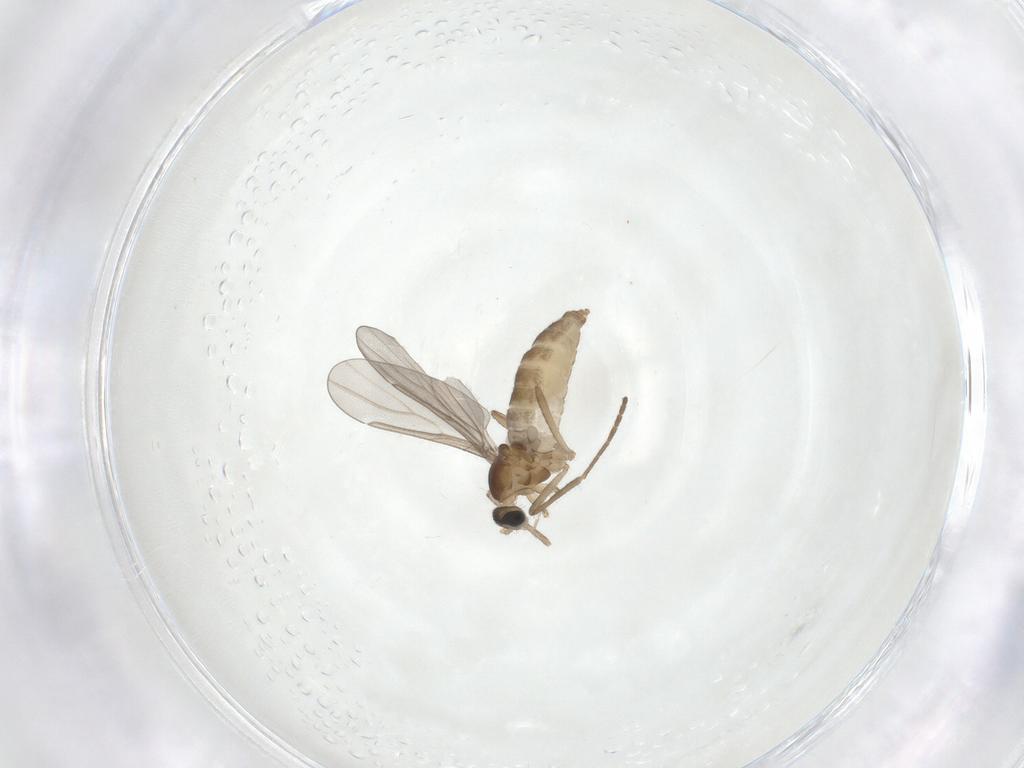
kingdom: Animalia
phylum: Arthropoda
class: Insecta
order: Diptera
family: Cecidomyiidae
